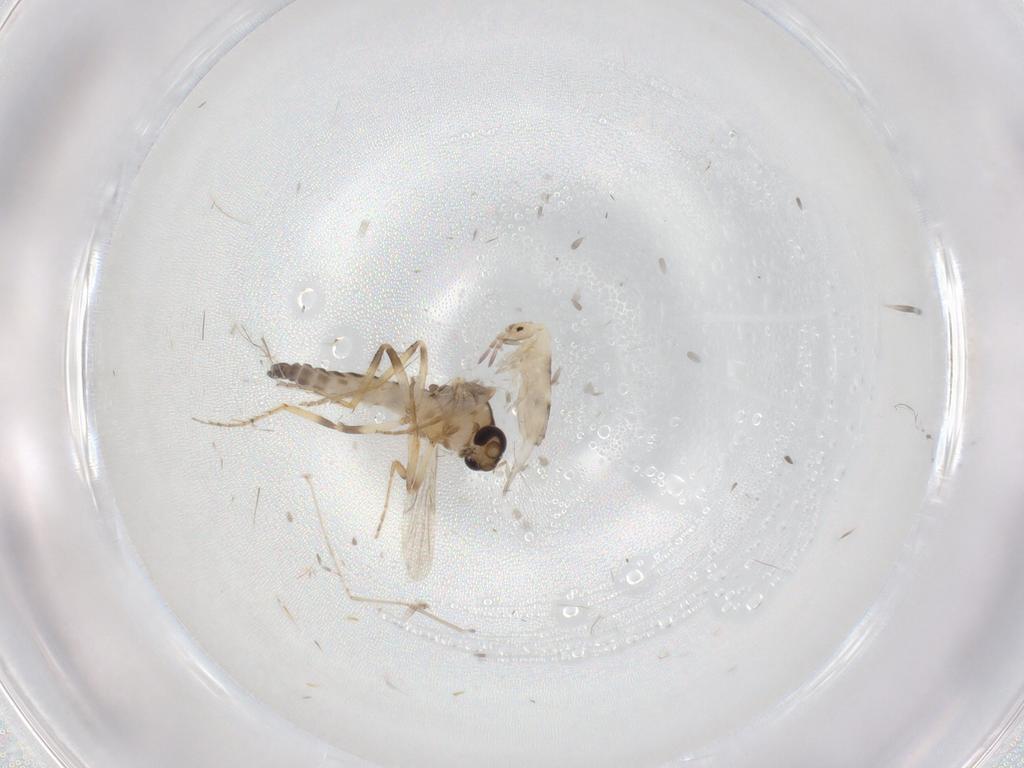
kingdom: Animalia
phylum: Arthropoda
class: Insecta
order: Diptera
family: Ceratopogonidae
